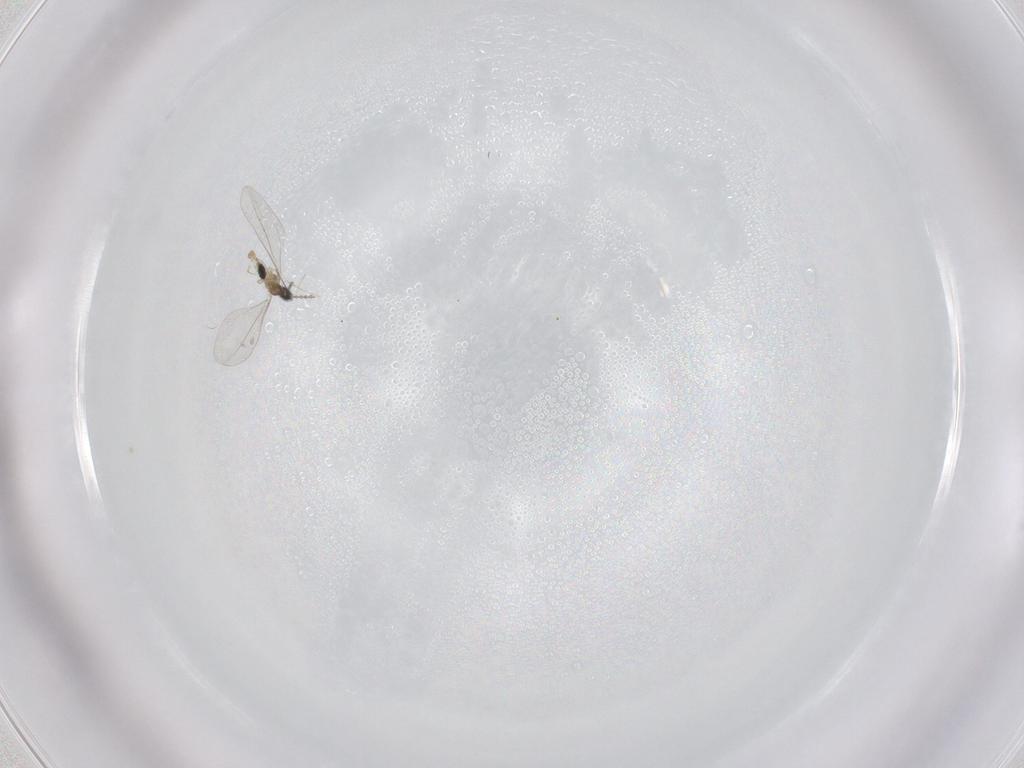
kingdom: Animalia
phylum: Arthropoda
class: Insecta
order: Diptera
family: Cecidomyiidae
